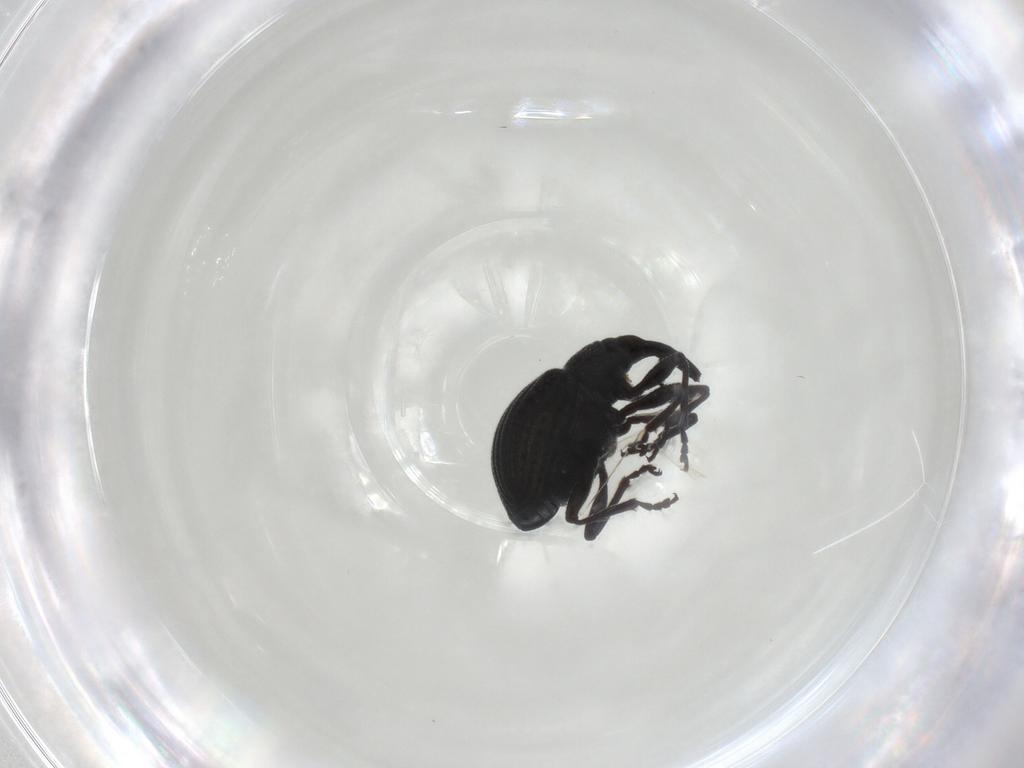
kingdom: Animalia
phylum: Arthropoda
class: Insecta
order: Coleoptera
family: Brentidae
